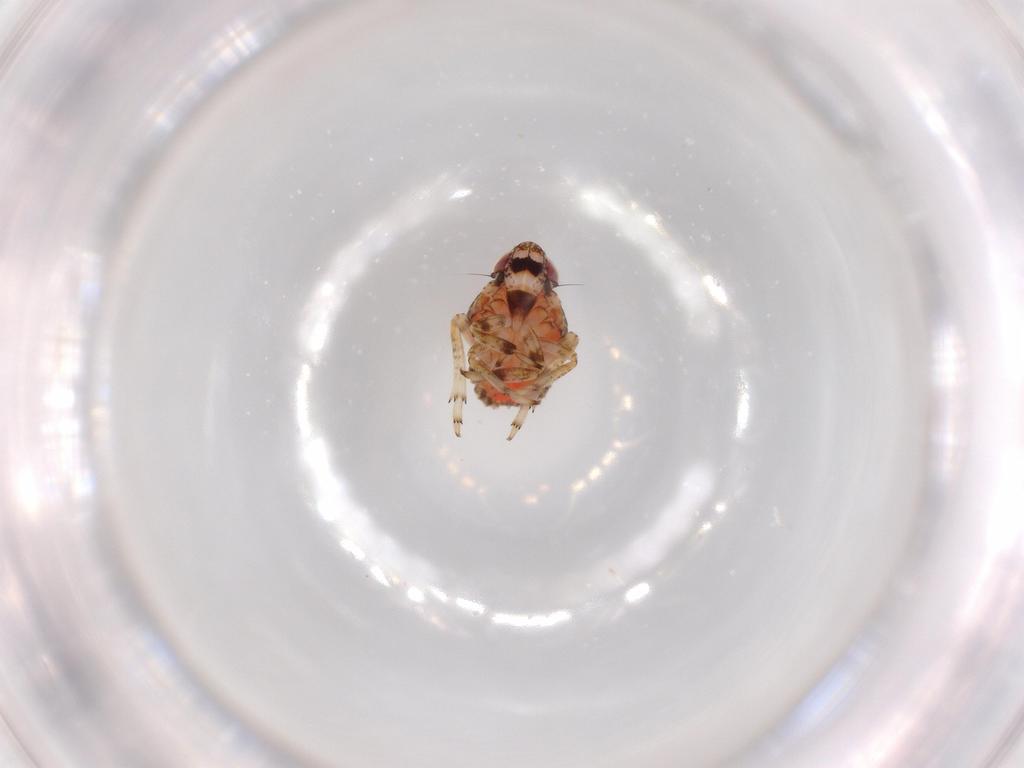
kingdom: Animalia
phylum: Arthropoda
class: Insecta
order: Hemiptera
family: Issidae
